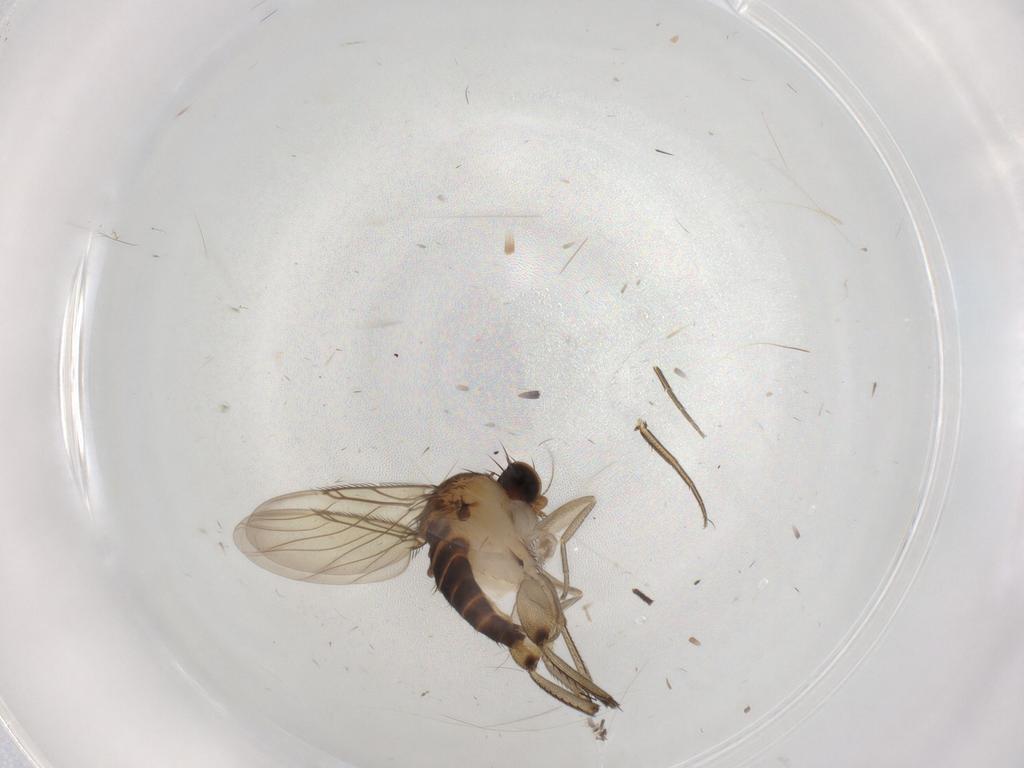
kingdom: Animalia
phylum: Arthropoda
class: Insecta
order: Diptera
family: Phoridae
